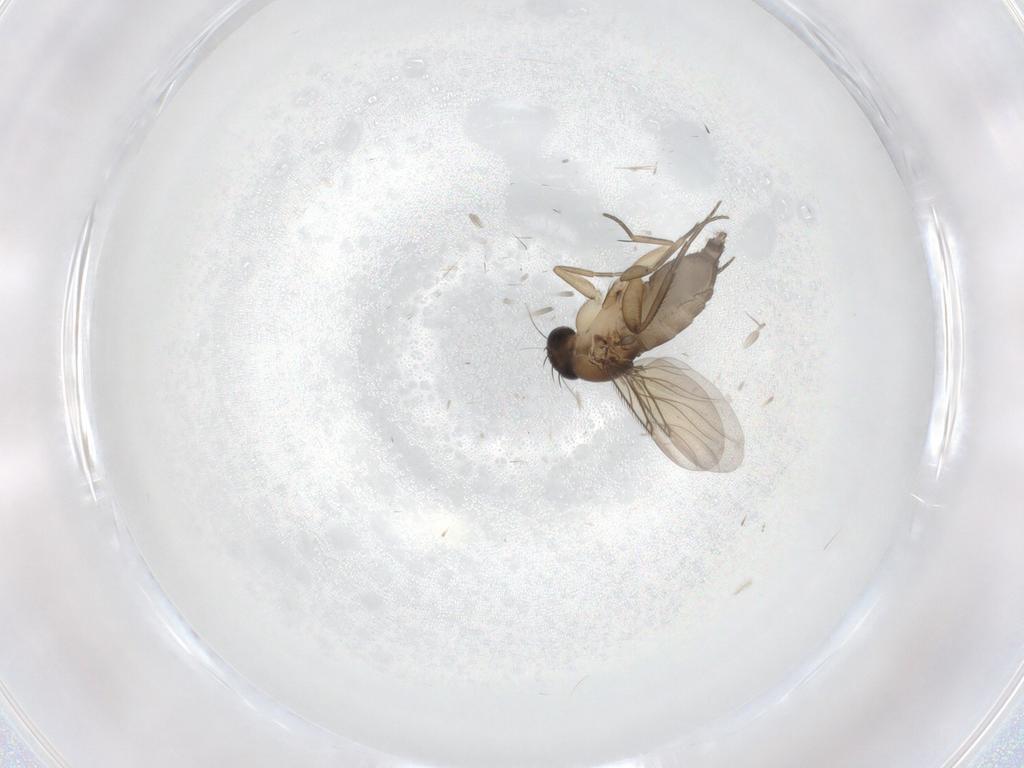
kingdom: Animalia
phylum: Arthropoda
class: Insecta
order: Diptera
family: Phoridae
